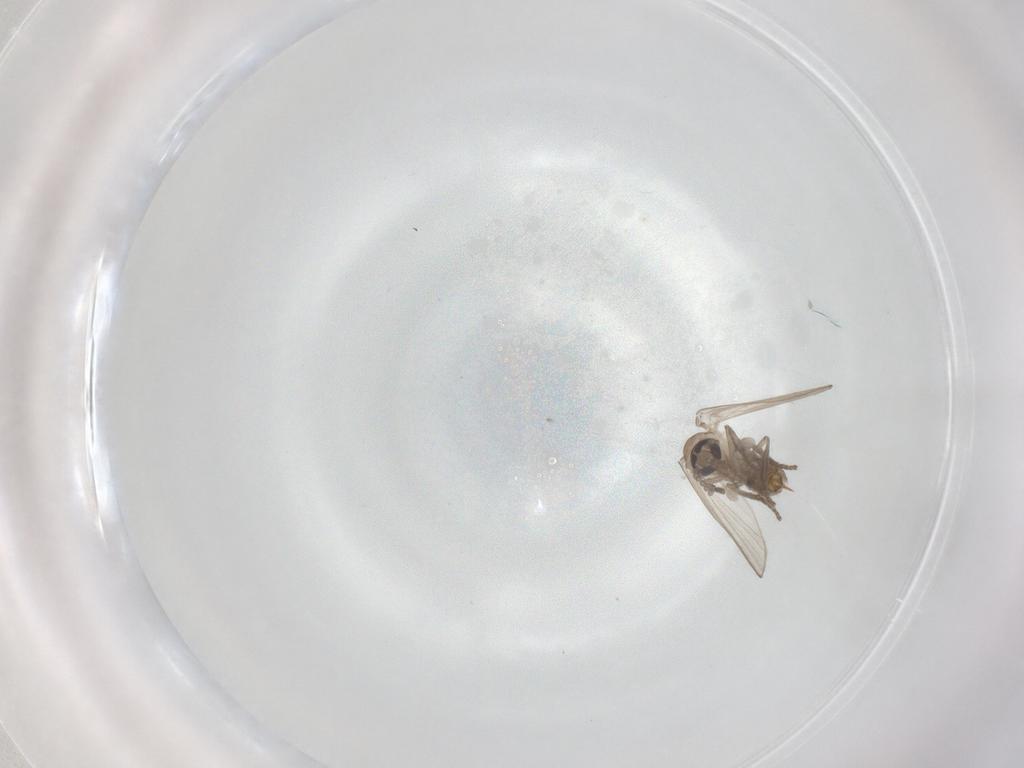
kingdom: Animalia
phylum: Arthropoda
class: Insecta
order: Diptera
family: Psychodidae
